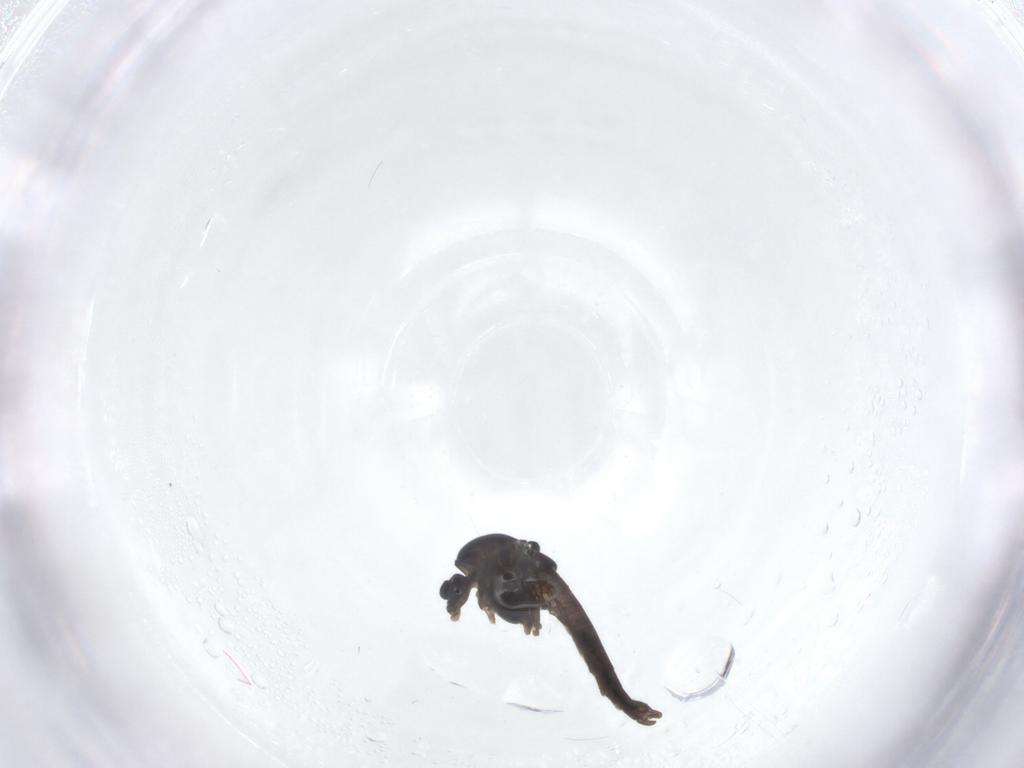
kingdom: Animalia
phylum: Arthropoda
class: Insecta
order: Diptera
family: Chironomidae
